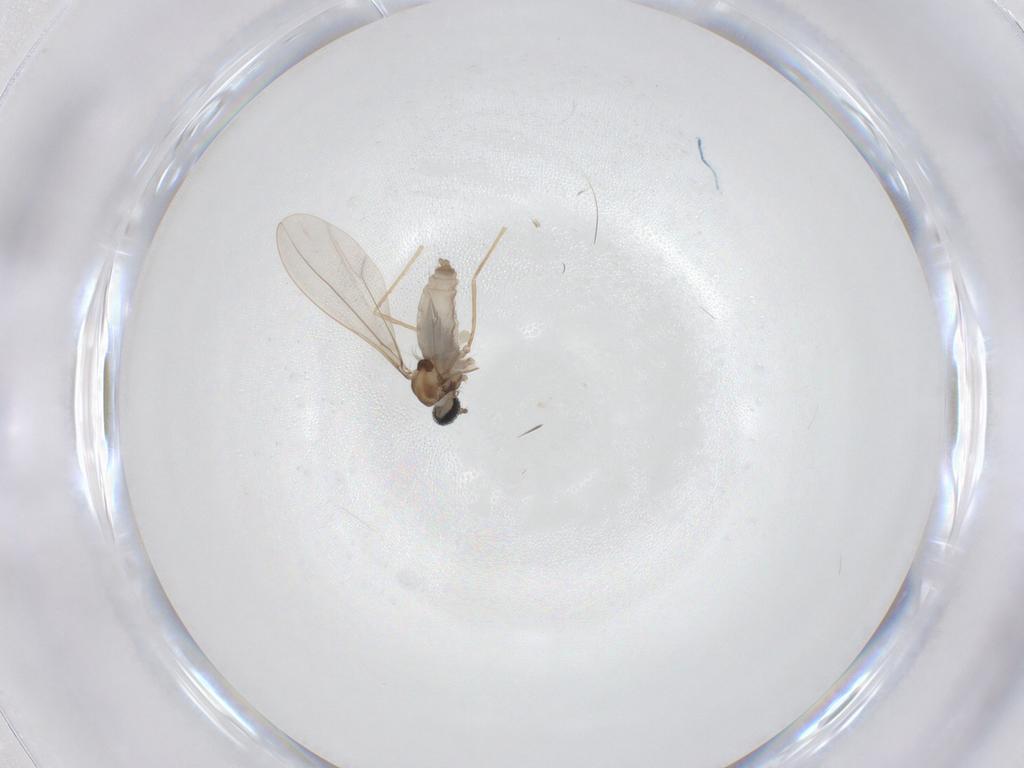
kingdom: Animalia
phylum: Arthropoda
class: Insecta
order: Diptera
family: Cecidomyiidae
